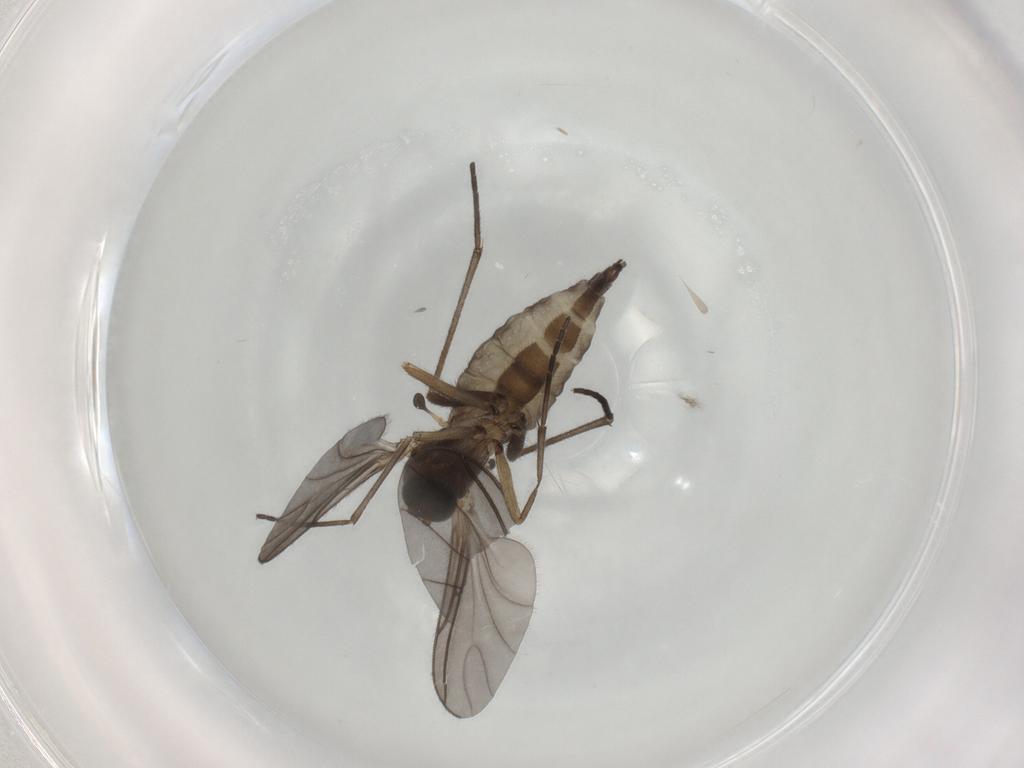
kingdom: Animalia
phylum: Arthropoda
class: Insecta
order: Diptera
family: Sciaridae
